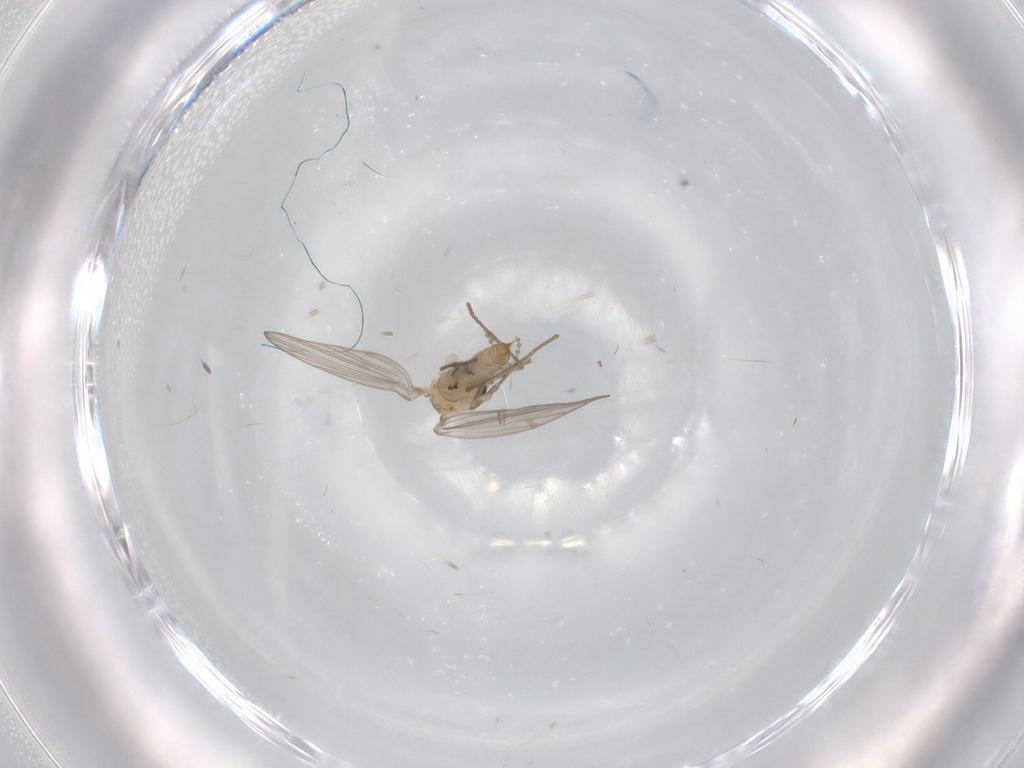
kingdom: Animalia
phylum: Arthropoda
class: Insecta
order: Diptera
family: Psychodidae
